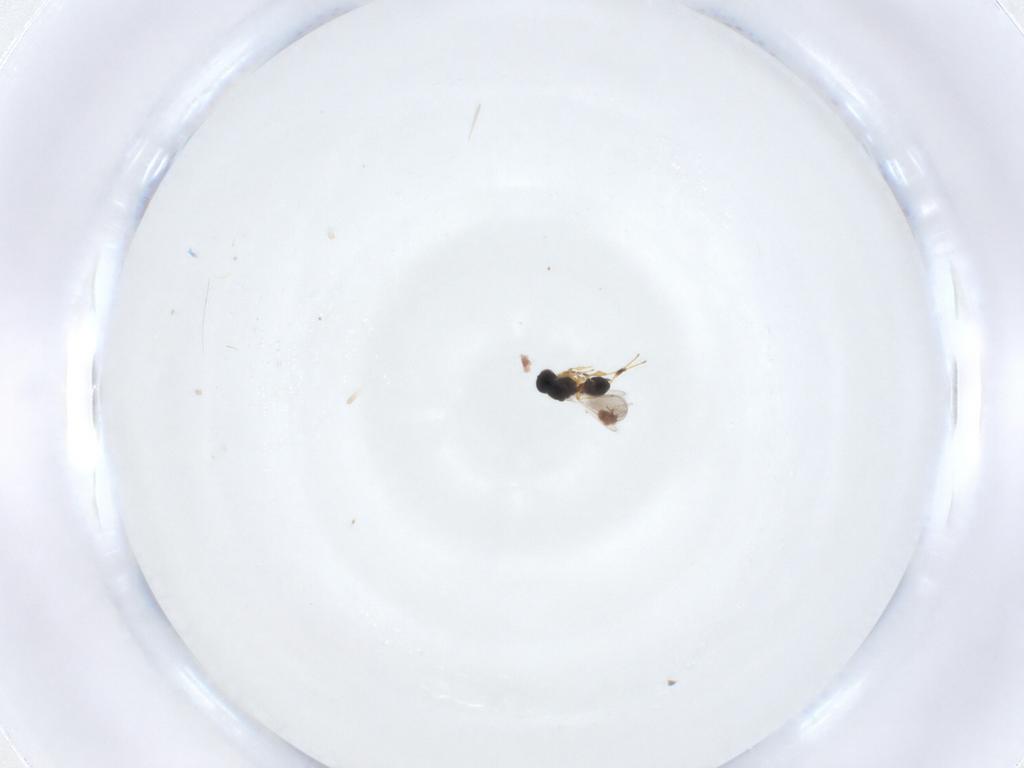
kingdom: Animalia
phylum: Arthropoda
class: Insecta
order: Hymenoptera
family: Platygastridae
